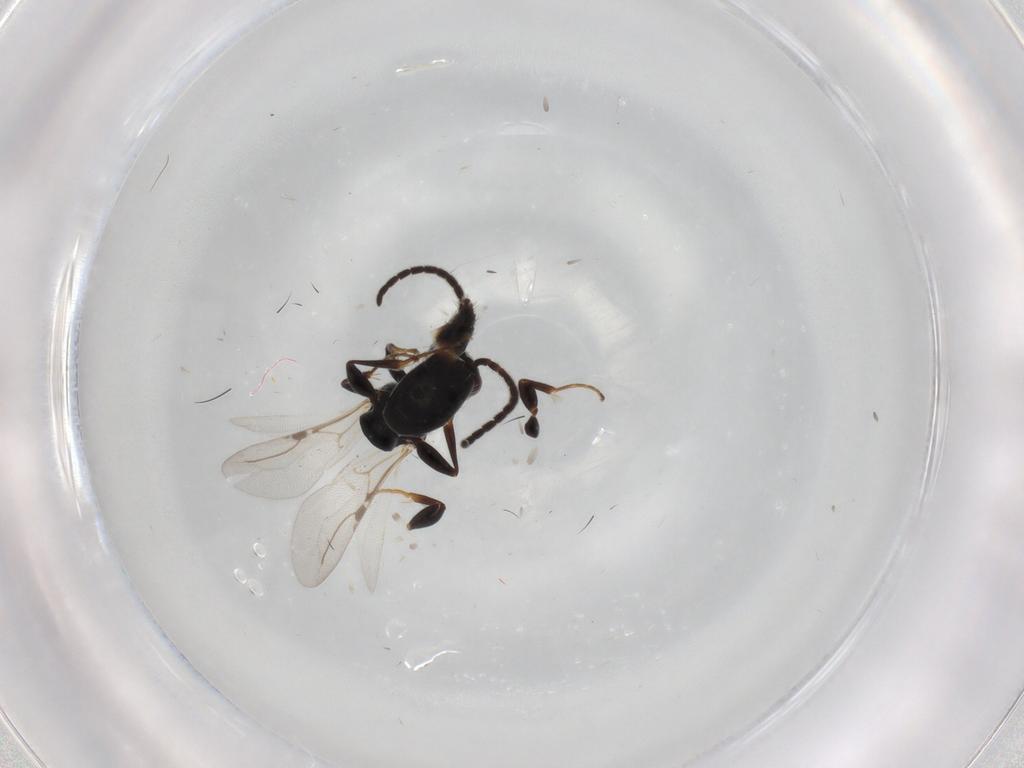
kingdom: Animalia
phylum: Arthropoda
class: Insecta
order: Hymenoptera
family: Bethylidae
